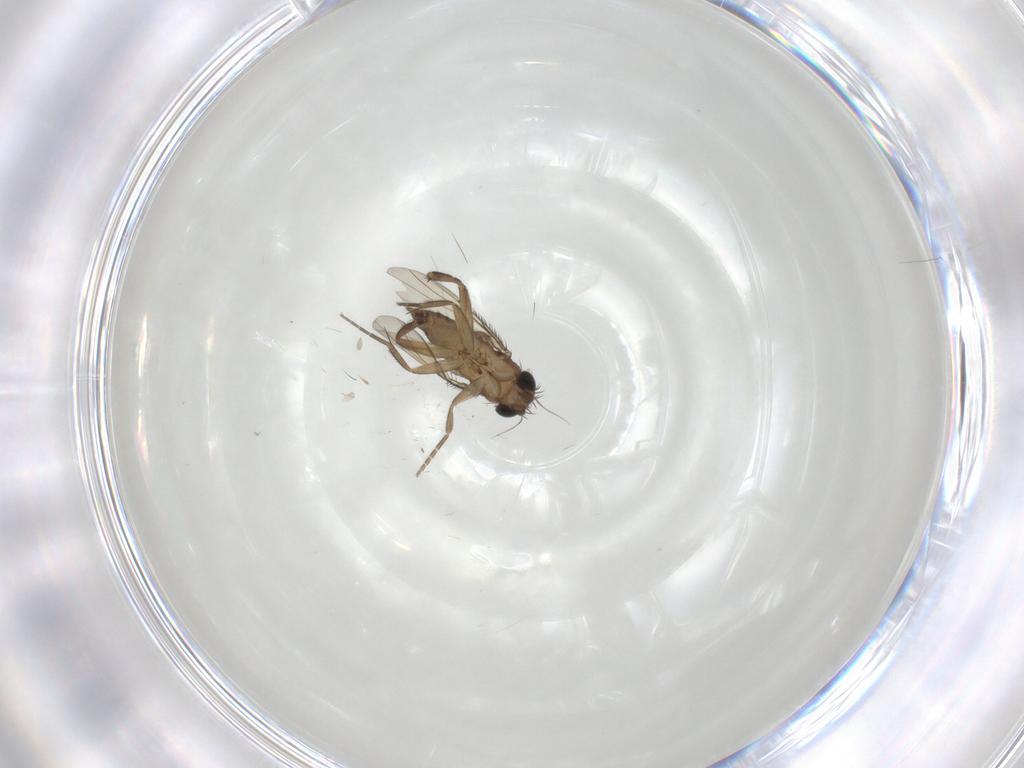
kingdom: Animalia
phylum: Arthropoda
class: Insecta
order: Diptera
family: Phoridae
